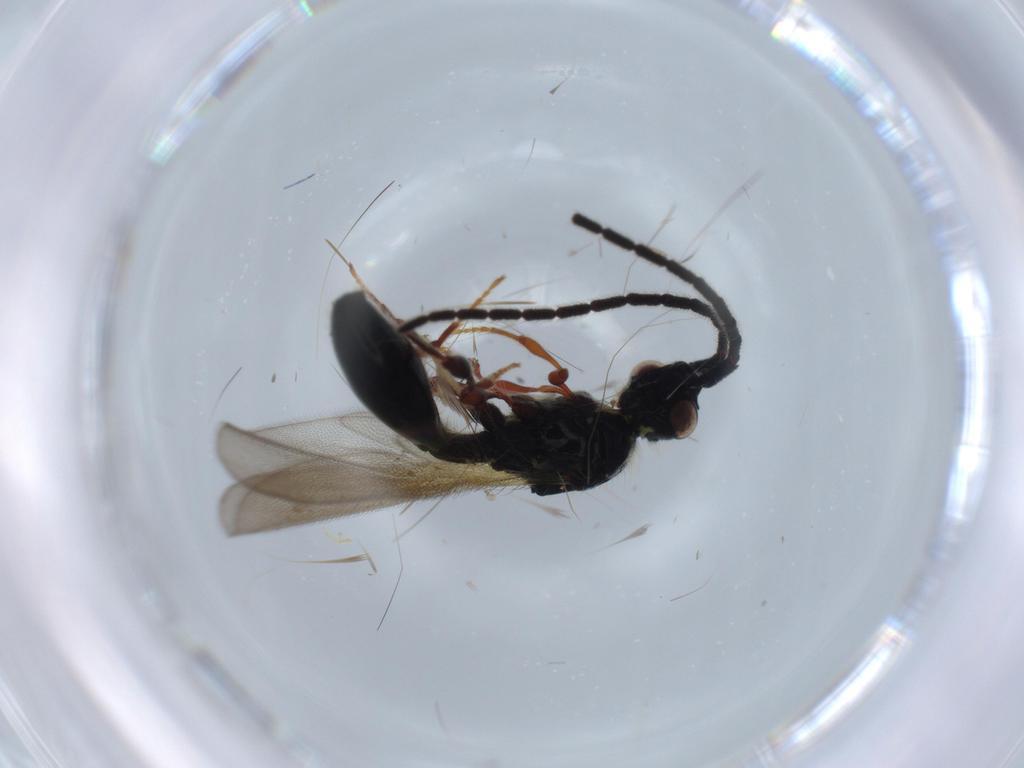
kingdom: Animalia
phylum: Arthropoda
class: Insecta
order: Hymenoptera
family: Diapriidae
